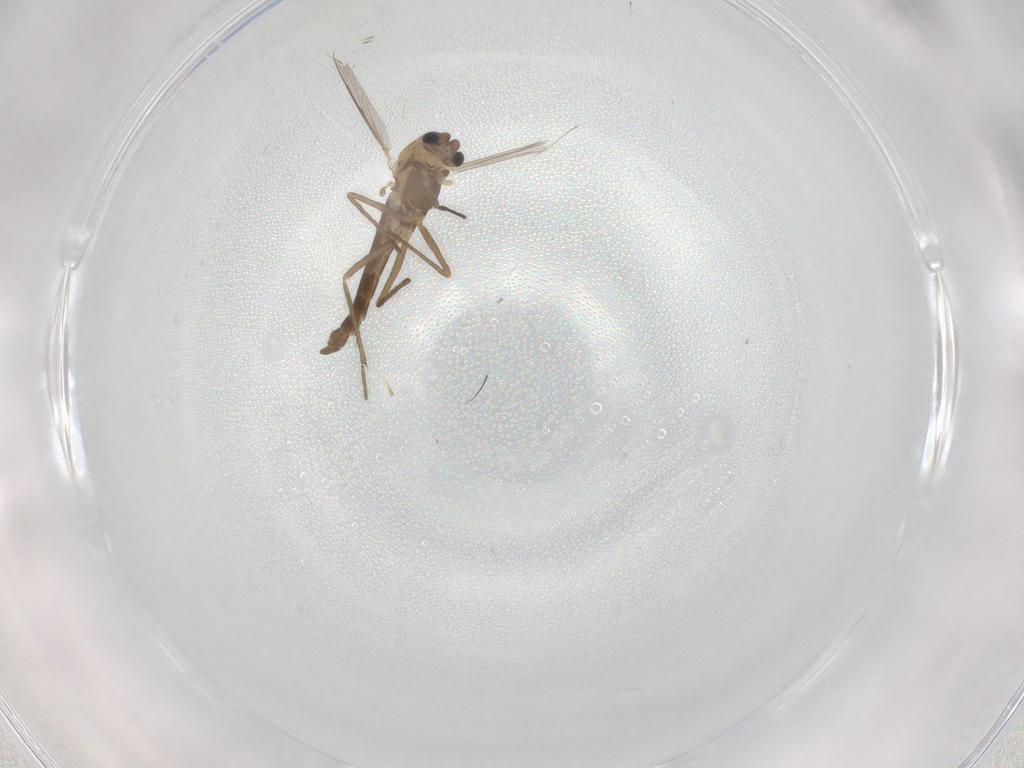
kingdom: Animalia
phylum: Arthropoda
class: Insecta
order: Diptera
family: Chironomidae
